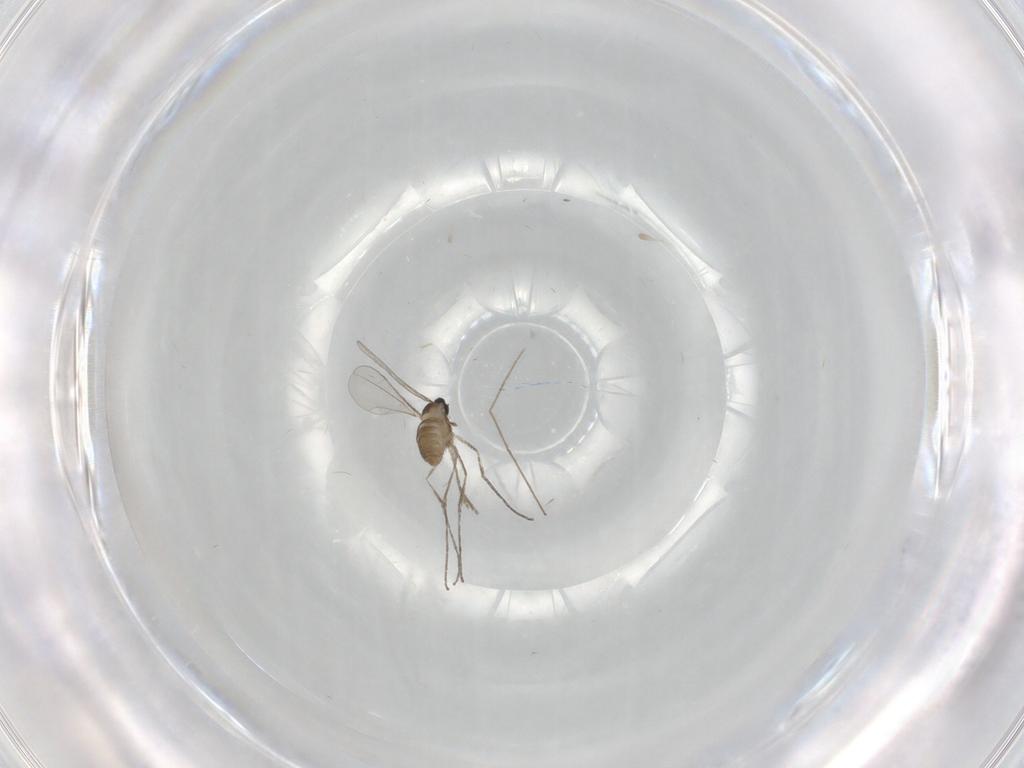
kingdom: Animalia
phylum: Arthropoda
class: Insecta
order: Diptera
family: Cecidomyiidae
